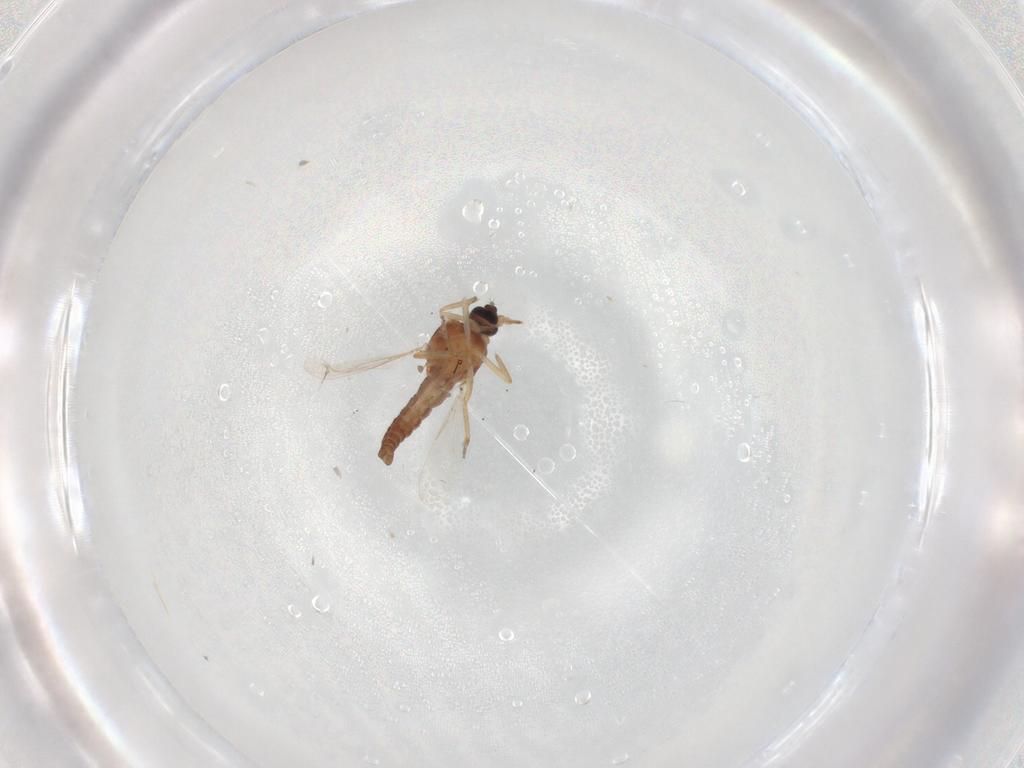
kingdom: Animalia
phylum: Arthropoda
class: Insecta
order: Diptera
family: Ceratopogonidae
